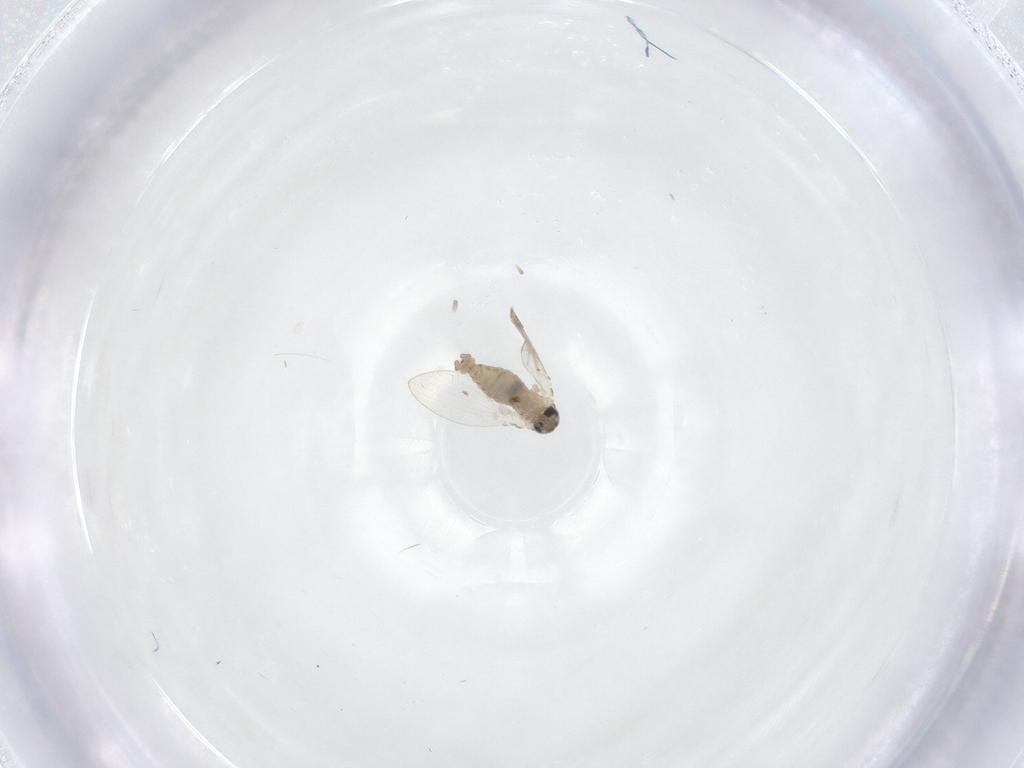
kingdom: Animalia
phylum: Arthropoda
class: Insecta
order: Diptera
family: Psychodidae
